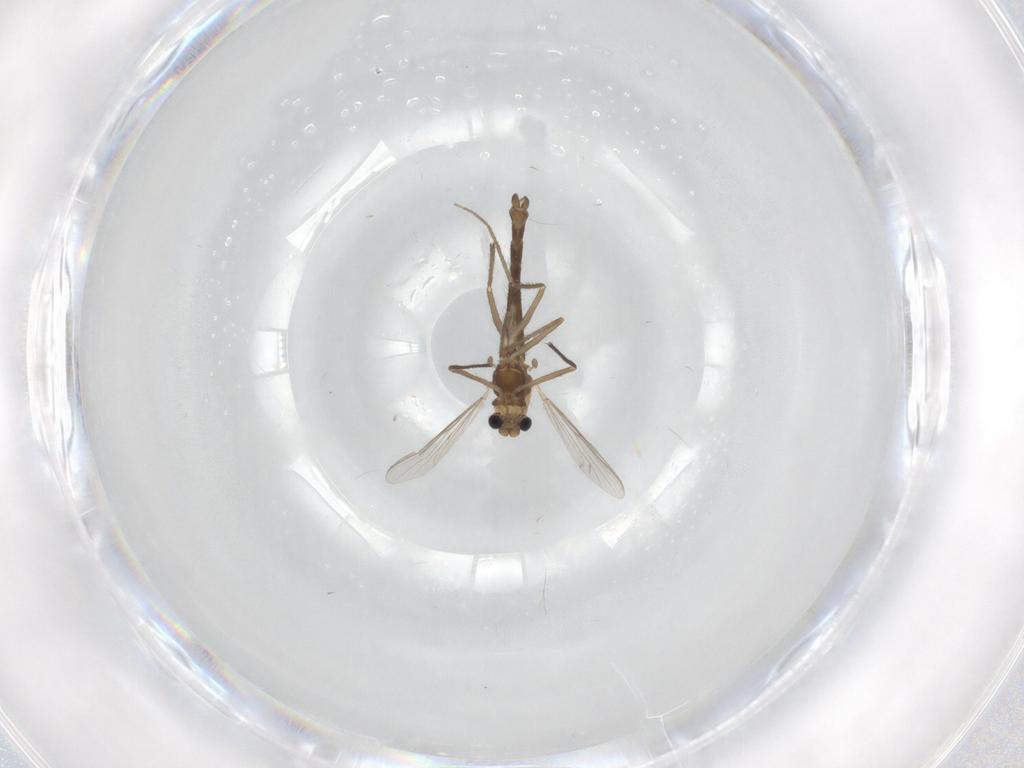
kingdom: Animalia
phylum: Arthropoda
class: Insecta
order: Diptera
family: Chironomidae
